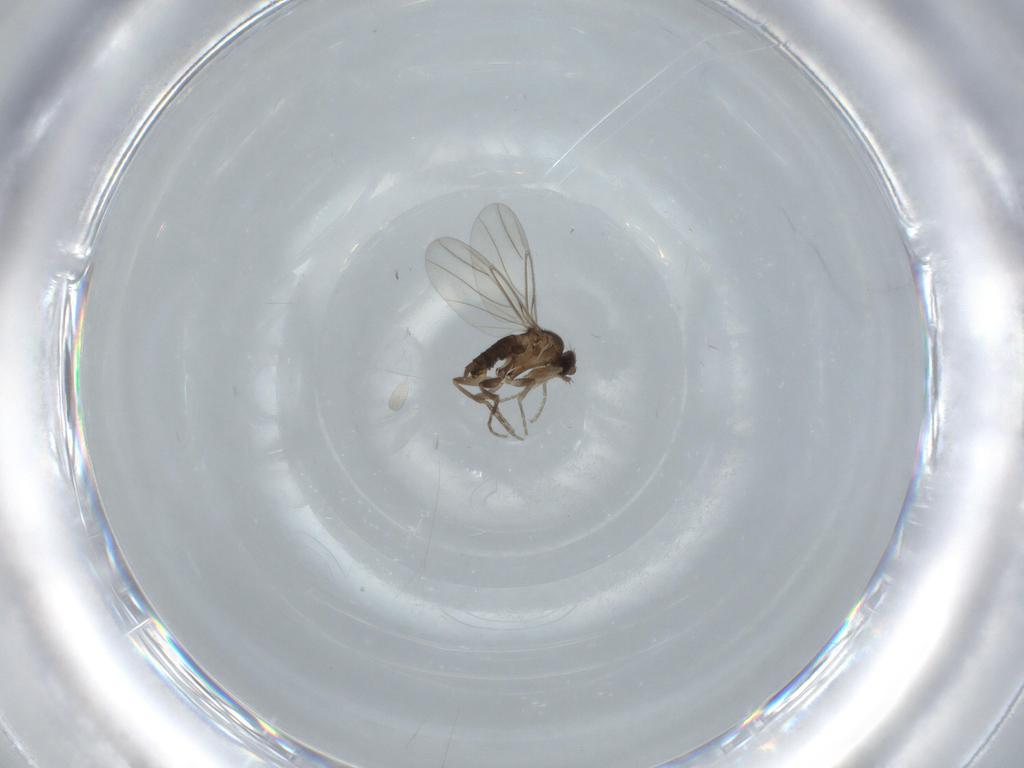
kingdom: Animalia
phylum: Arthropoda
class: Insecta
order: Diptera
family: Phoridae
